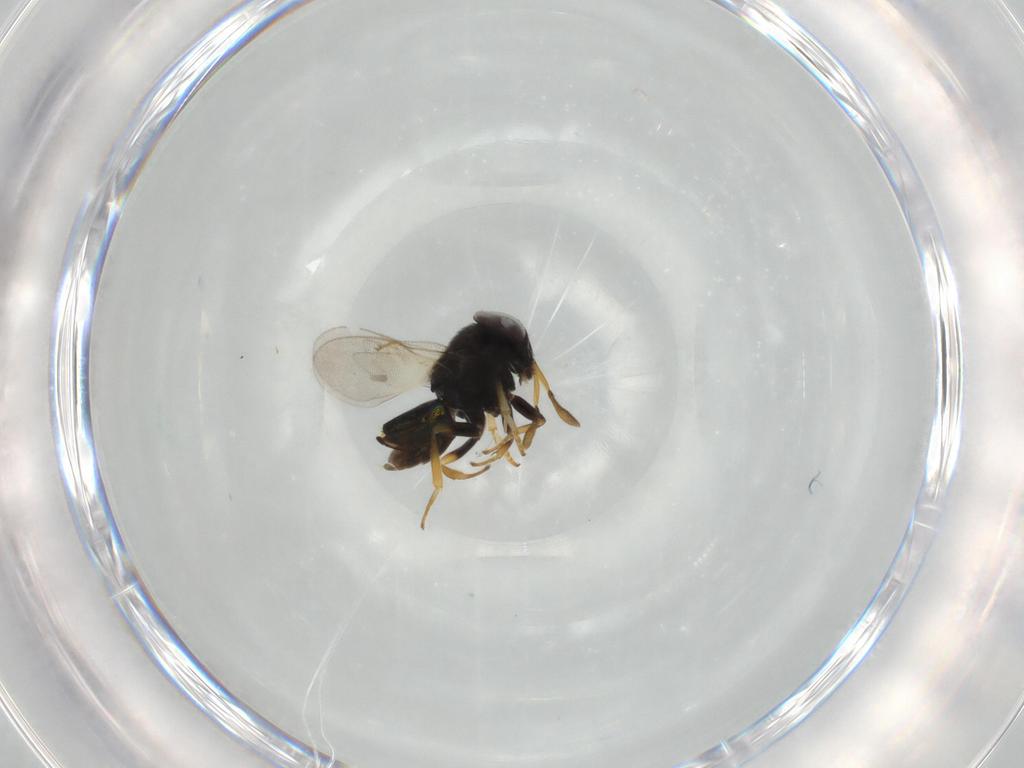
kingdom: Animalia
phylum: Arthropoda
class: Insecta
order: Hymenoptera
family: Encyrtidae
